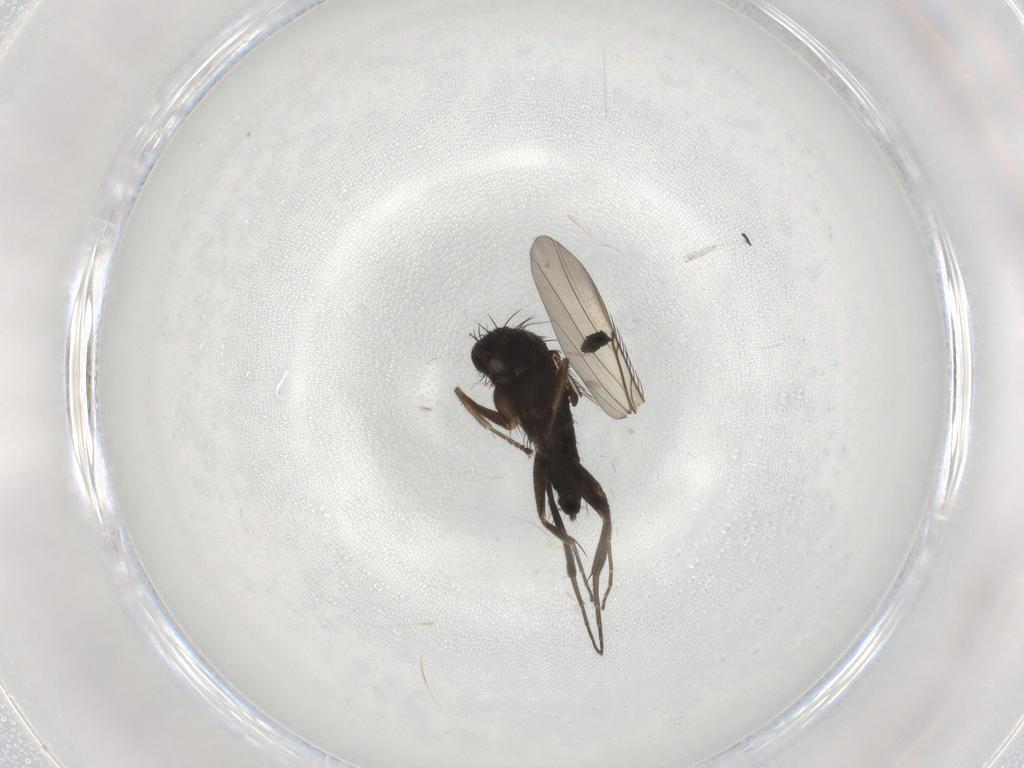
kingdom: Animalia
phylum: Arthropoda
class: Insecta
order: Diptera
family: Phoridae
